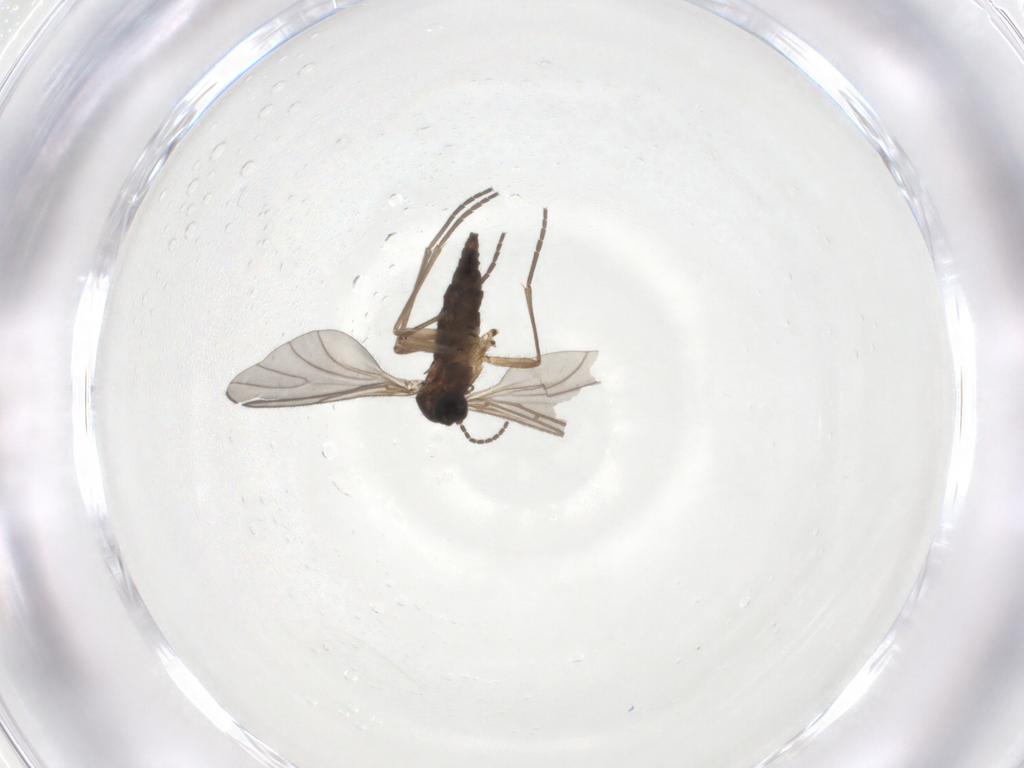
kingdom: Animalia
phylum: Arthropoda
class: Insecta
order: Diptera
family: Sciaridae
